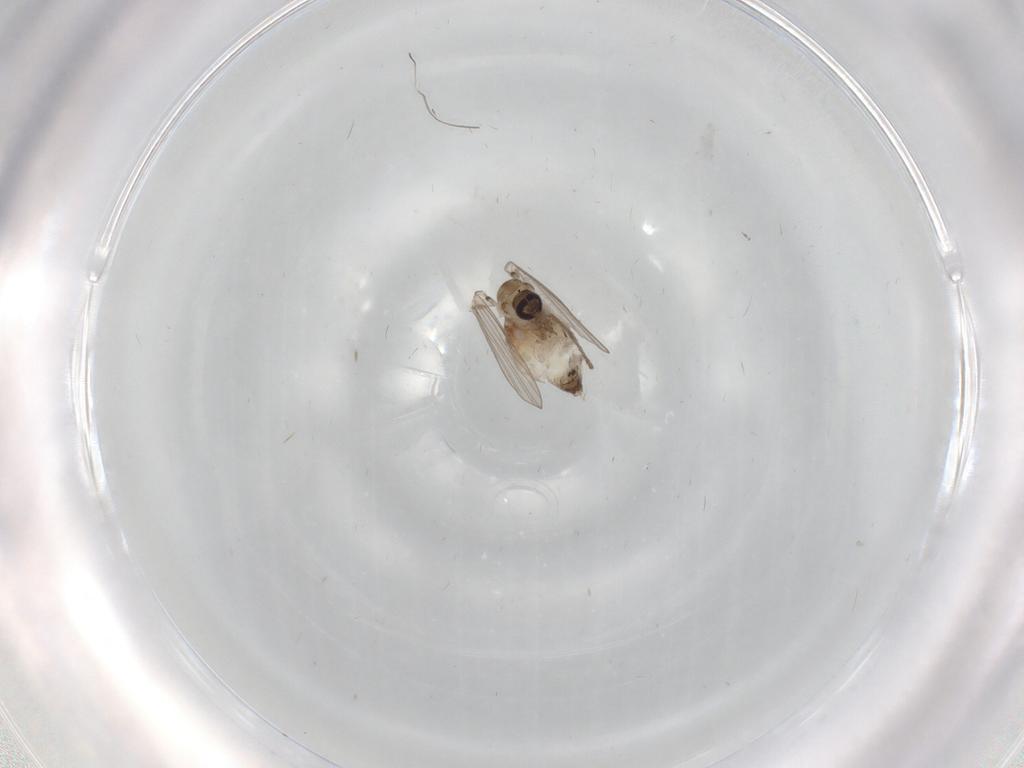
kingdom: Animalia
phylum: Arthropoda
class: Insecta
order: Diptera
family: Psychodidae
